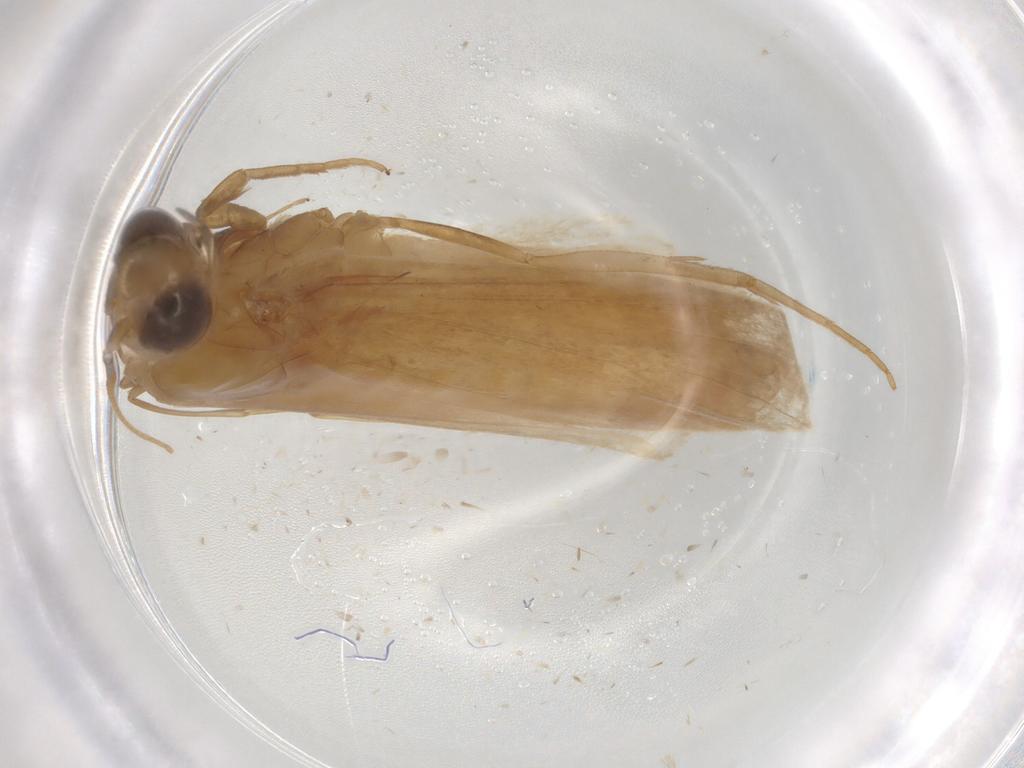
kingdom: Animalia
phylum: Arthropoda
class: Insecta
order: Lepidoptera
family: Pyralidae
